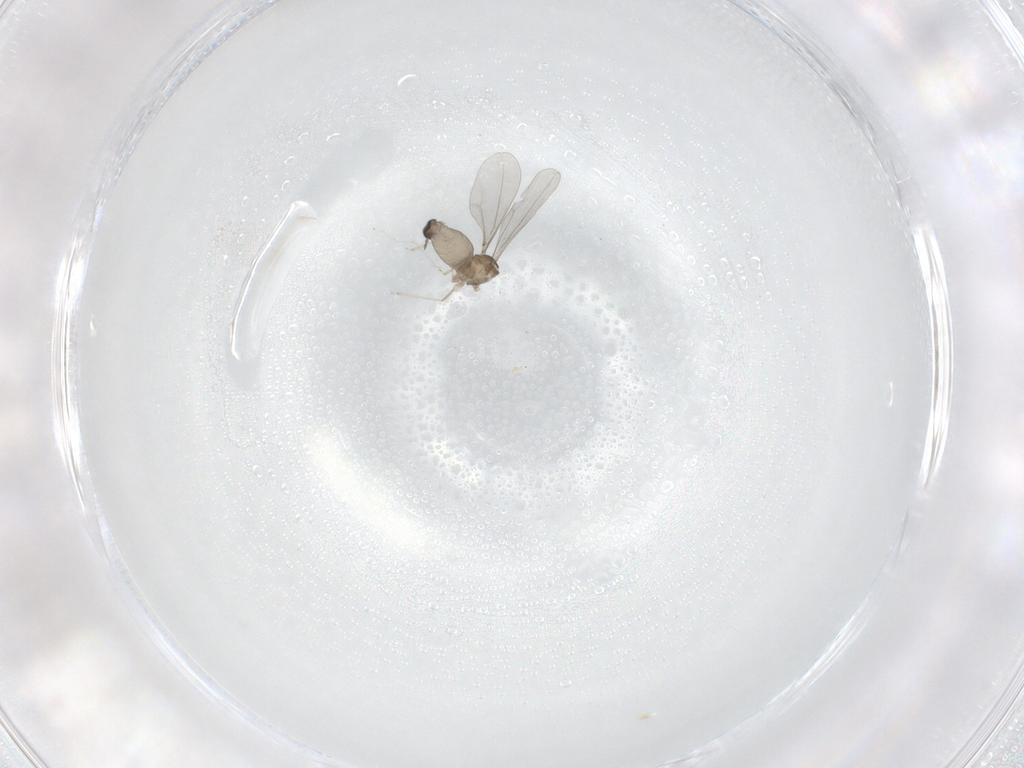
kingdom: Animalia
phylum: Arthropoda
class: Insecta
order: Diptera
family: Cecidomyiidae
